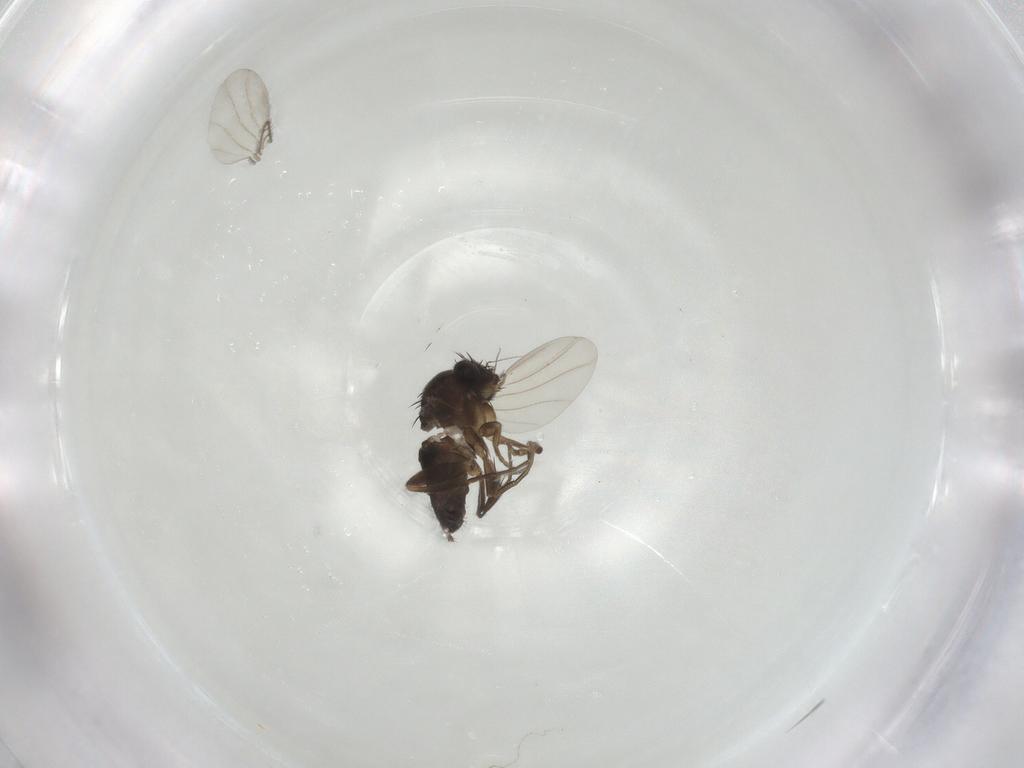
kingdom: Animalia
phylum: Arthropoda
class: Insecta
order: Diptera
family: Phoridae
